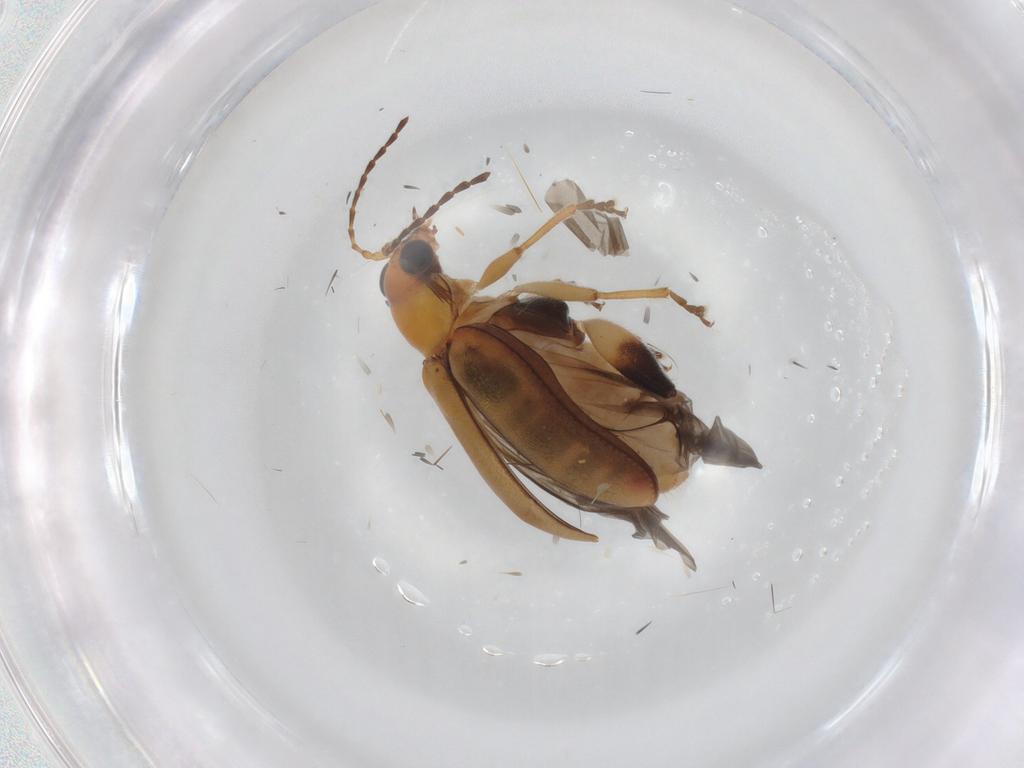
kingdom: Animalia
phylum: Arthropoda
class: Insecta
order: Coleoptera
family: Chrysomelidae
